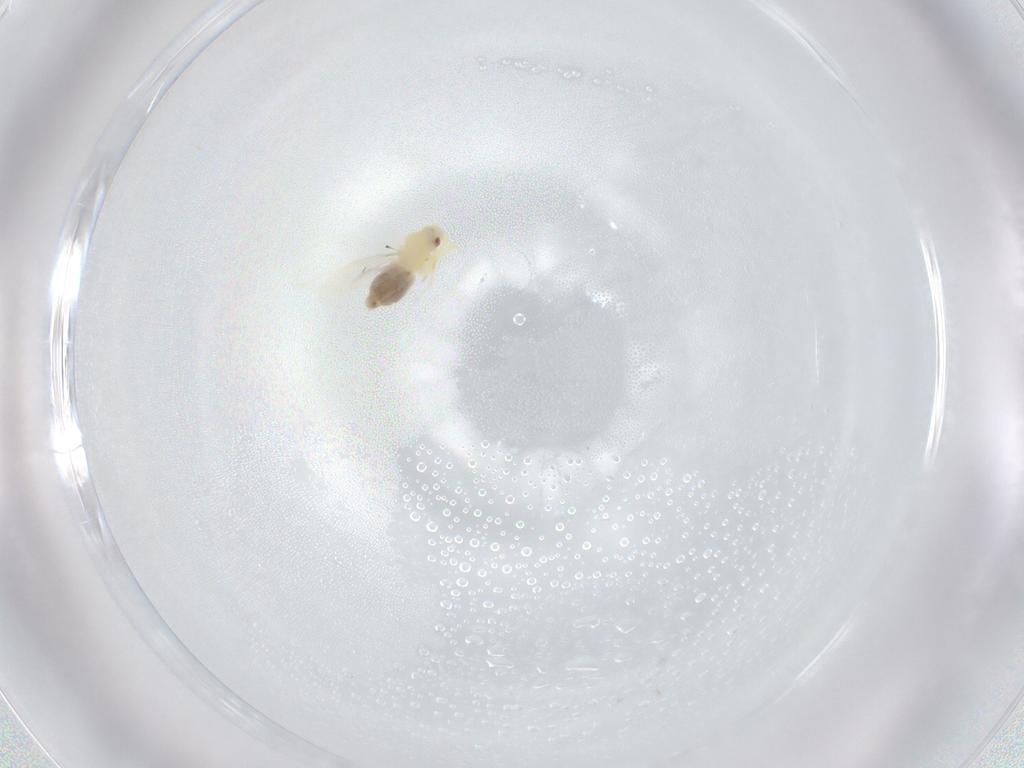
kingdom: Animalia
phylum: Arthropoda
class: Insecta
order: Hemiptera
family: Aleyrodidae
